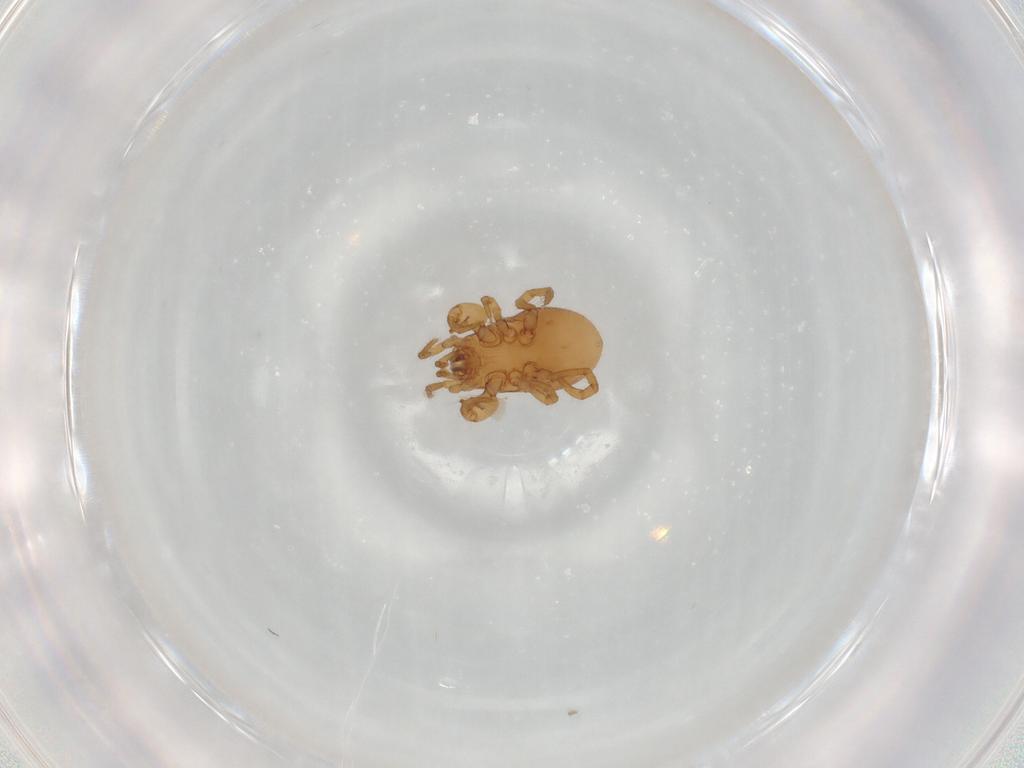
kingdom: Animalia
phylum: Arthropoda
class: Arachnida
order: Mesostigmata
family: Parasitidae
